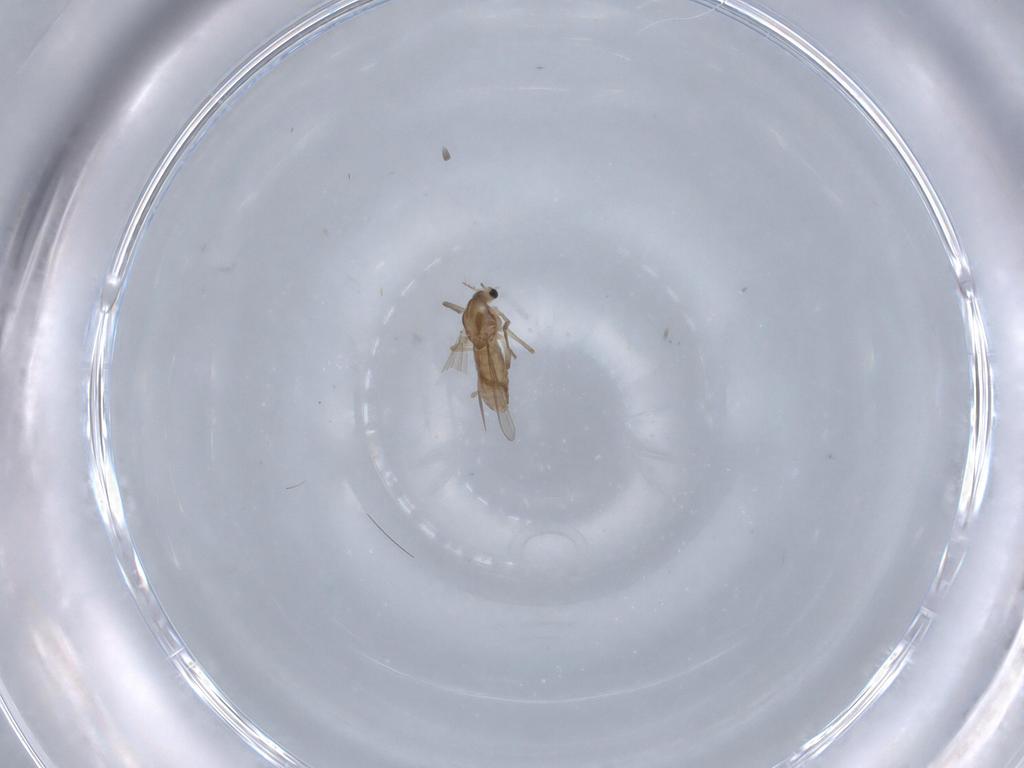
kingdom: Animalia
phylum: Arthropoda
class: Insecta
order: Diptera
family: Chironomidae
